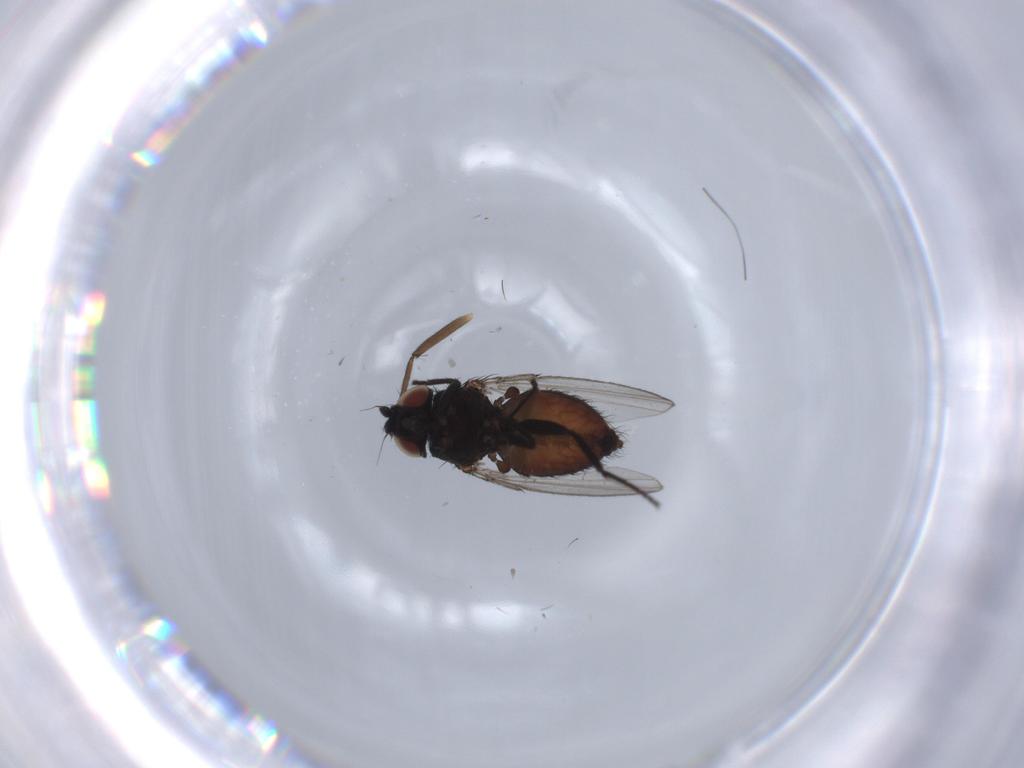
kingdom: Animalia
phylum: Arthropoda
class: Insecta
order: Diptera
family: Milichiidae
